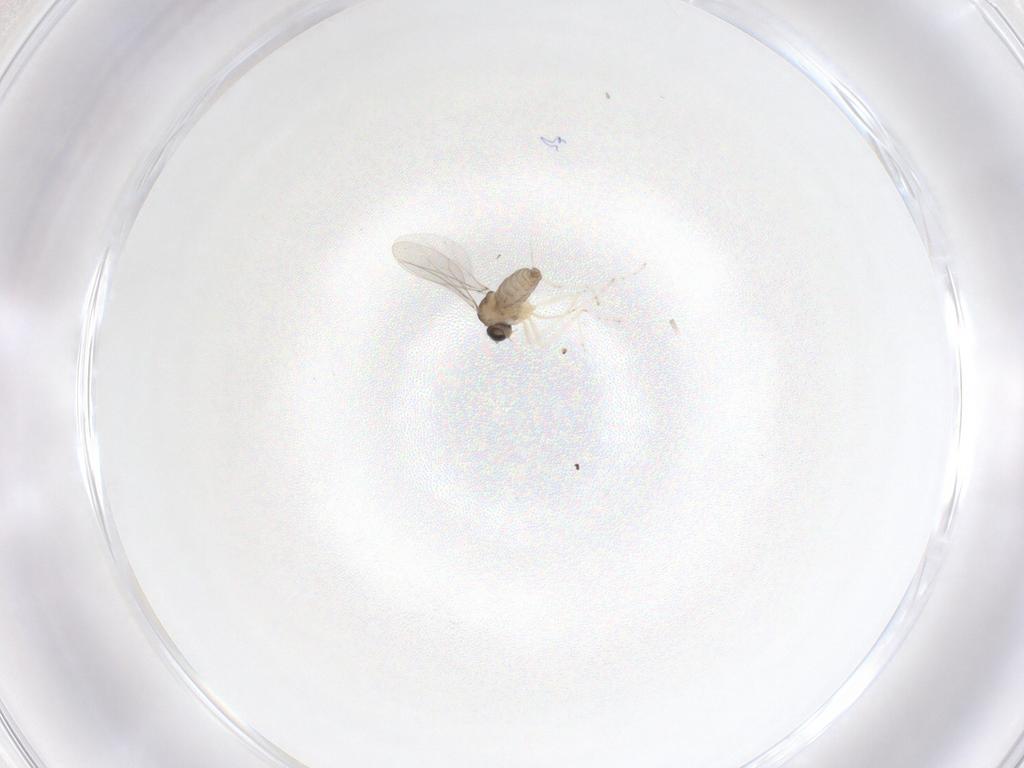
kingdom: Animalia
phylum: Arthropoda
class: Insecta
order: Diptera
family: Cecidomyiidae
